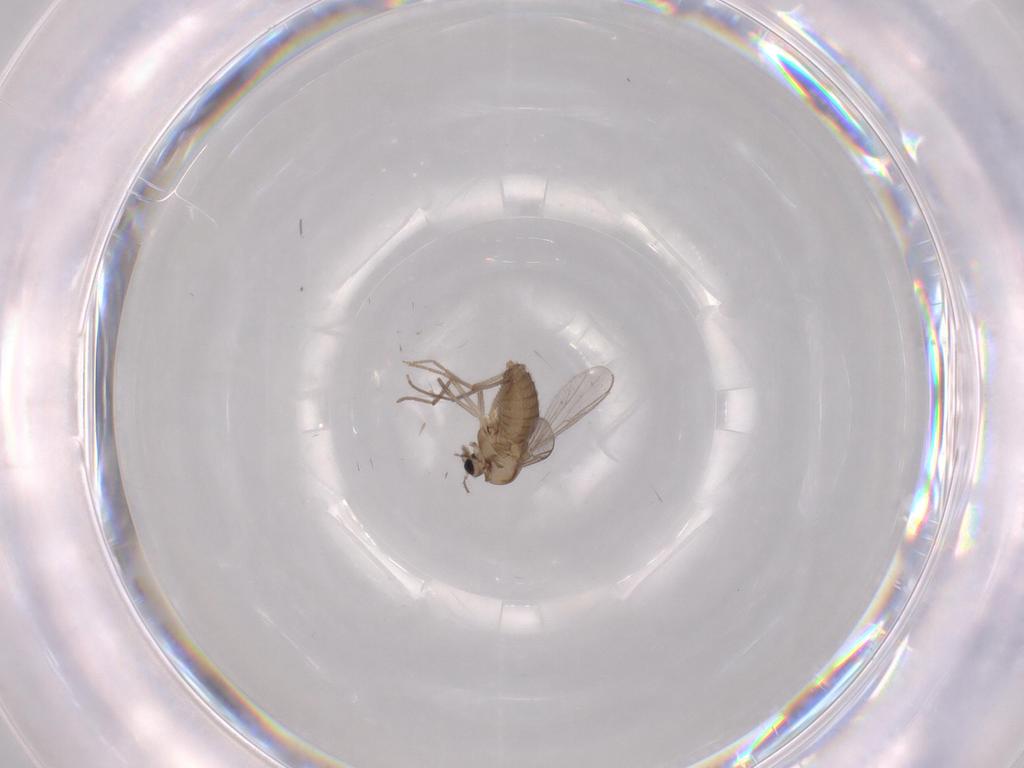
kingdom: Animalia
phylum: Arthropoda
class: Insecta
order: Diptera
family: Chironomidae
